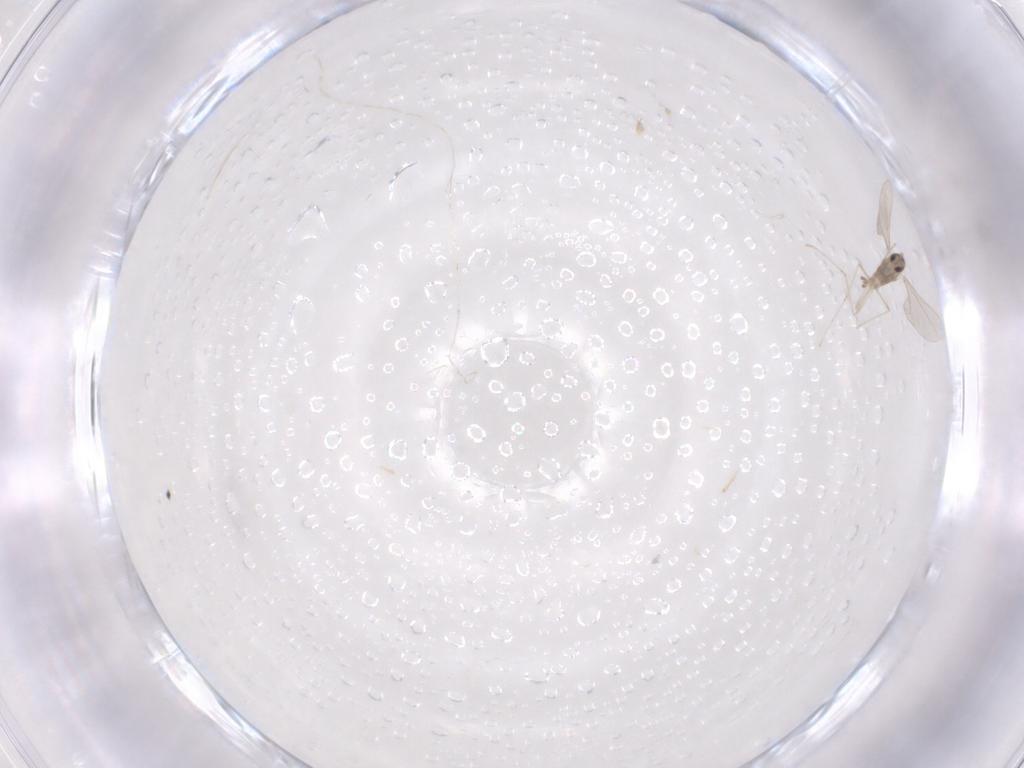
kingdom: Animalia
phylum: Arthropoda
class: Insecta
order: Diptera
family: Cecidomyiidae
